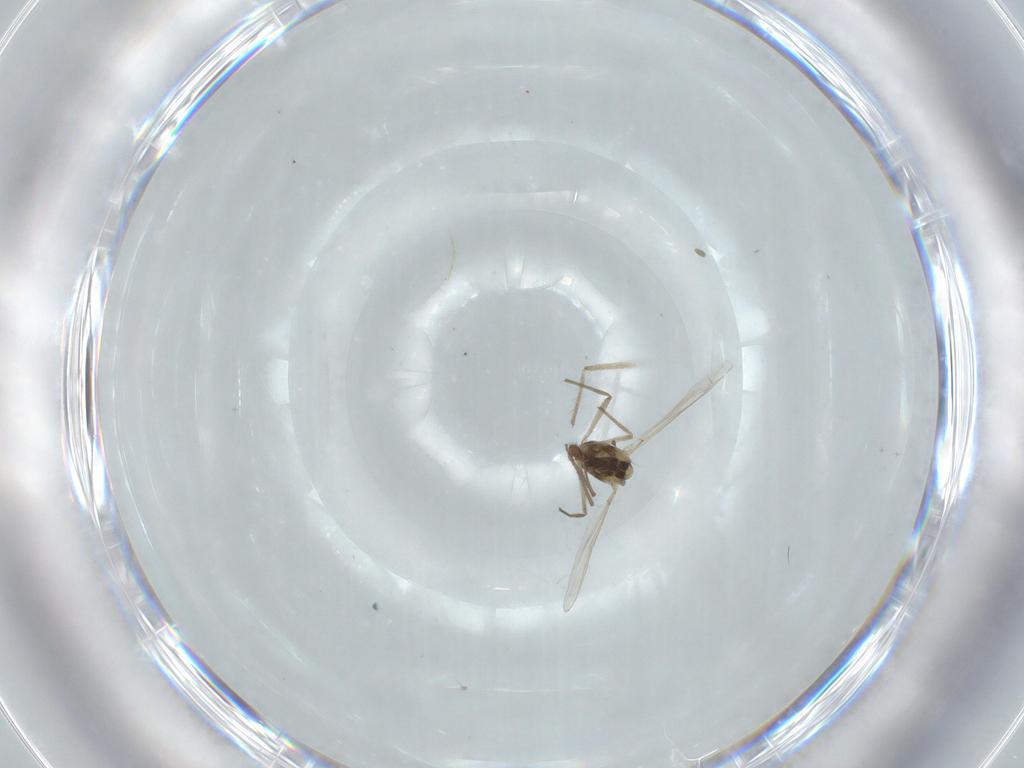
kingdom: Animalia
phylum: Arthropoda
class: Insecta
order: Diptera
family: Chironomidae
